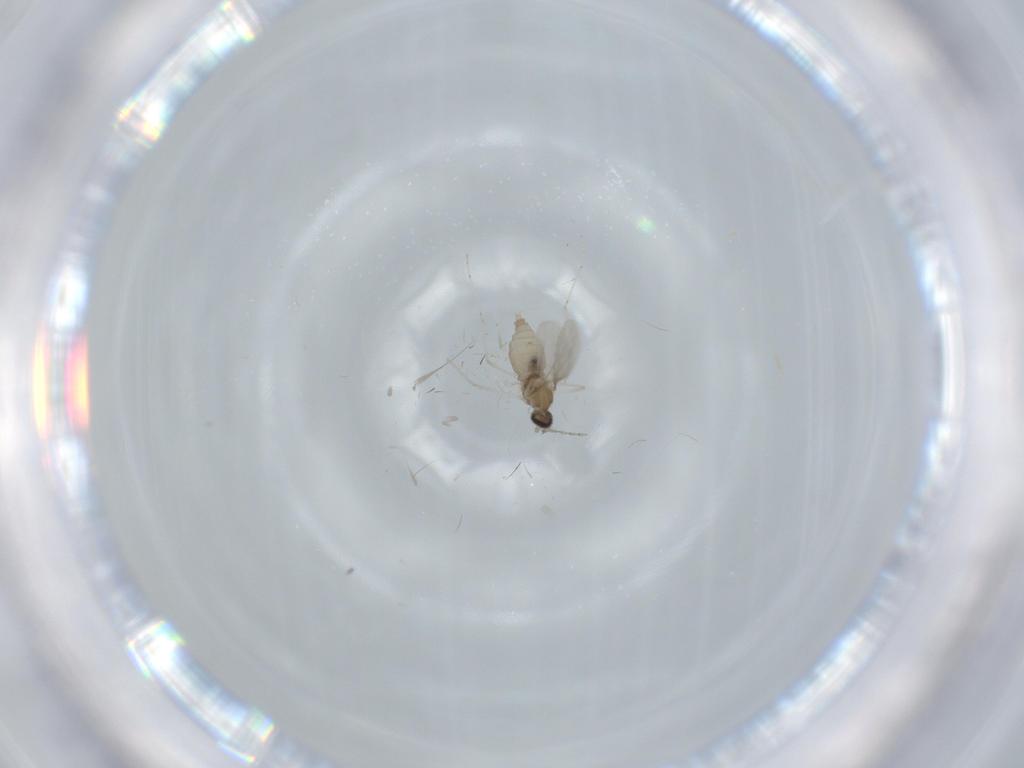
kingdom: Animalia
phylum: Arthropoda
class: Insecta
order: Diptera
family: Cecidomyiidae
